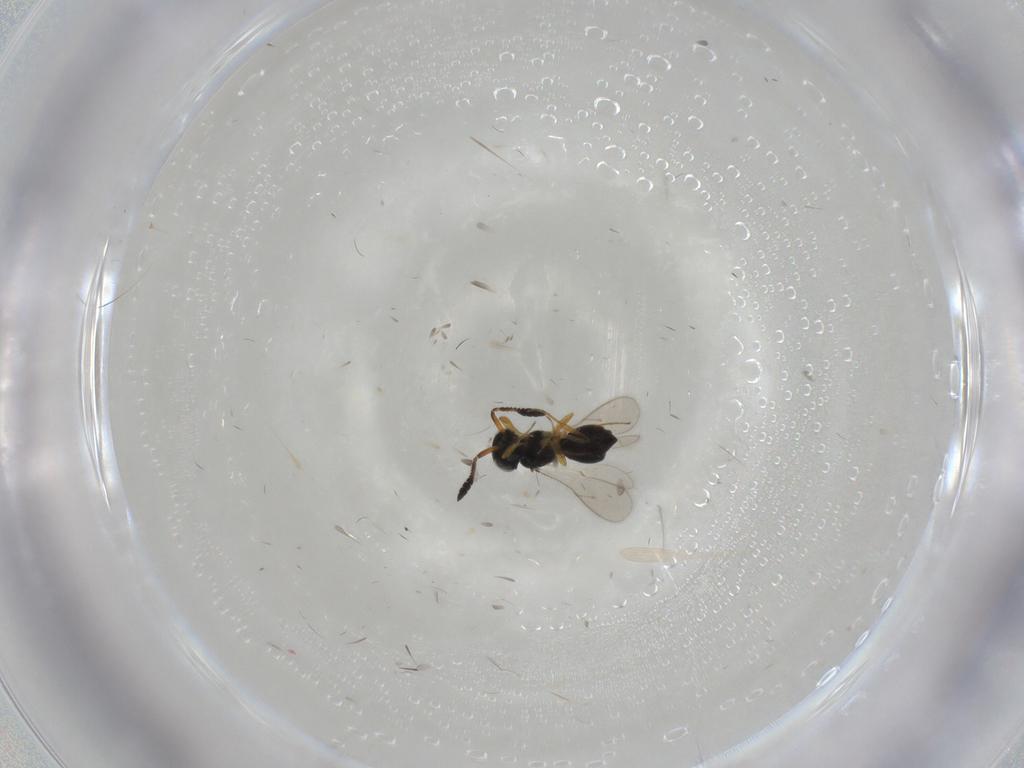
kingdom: Animalia
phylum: Arthropoda
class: Insecta
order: Hymenoptera
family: Scelionidae
